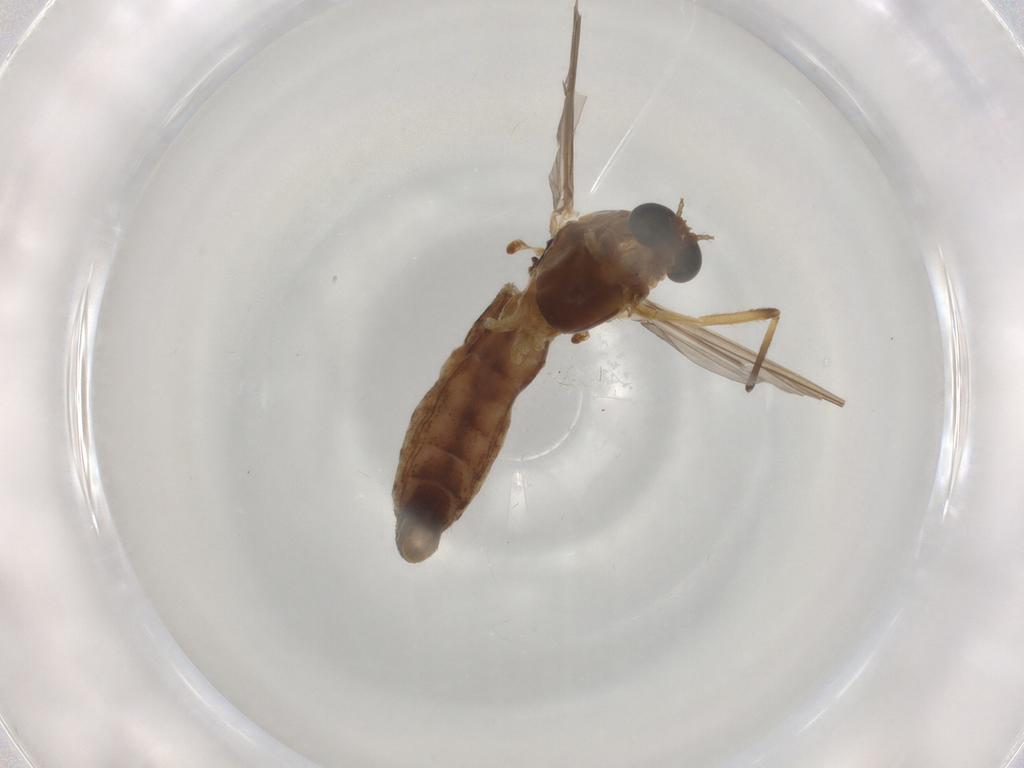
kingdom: Animalia
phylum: Arthropoda
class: Insecta
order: Diptera
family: Chironomidae
